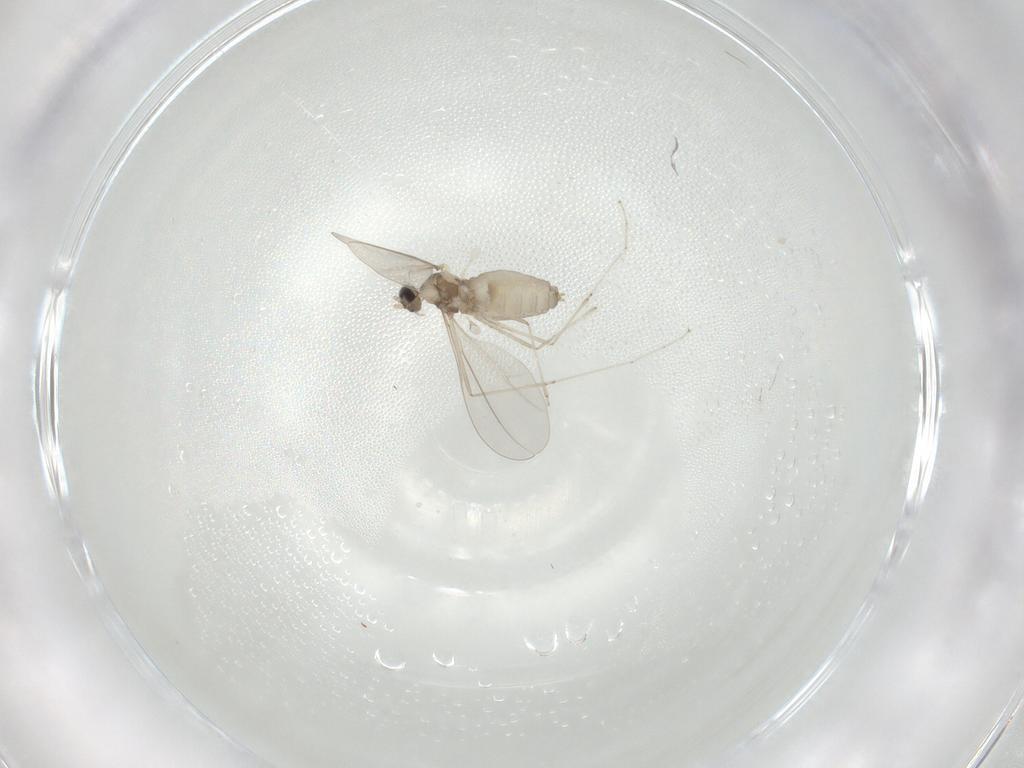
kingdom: Animalia
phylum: Arthropoda
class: Insecta
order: Diptera
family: Cecidomyiidae
